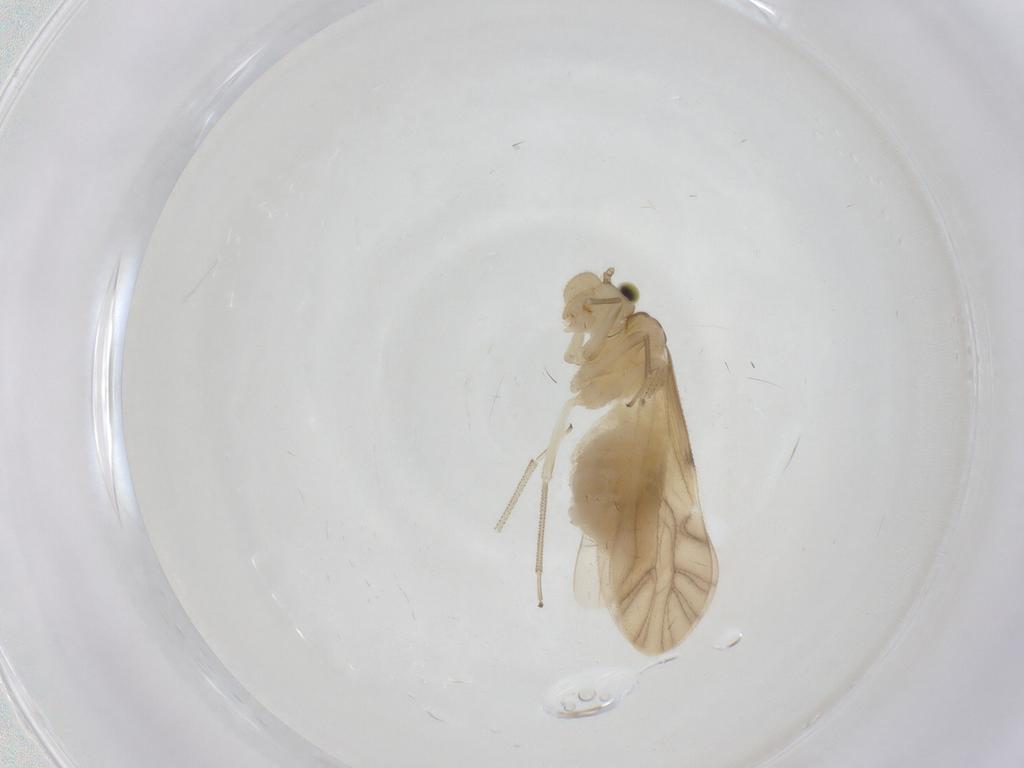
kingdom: Animalia
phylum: Arthropoda
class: Insecta
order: Psocodea
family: Caeciliusidae
